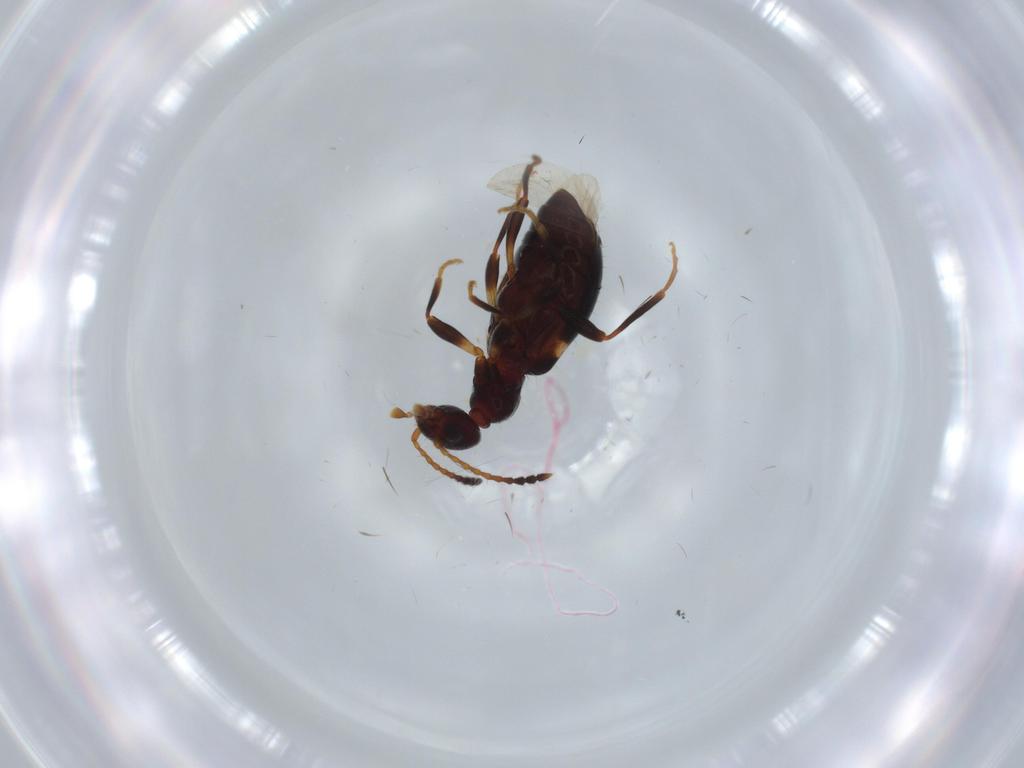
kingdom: Animalia
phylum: Arthropoda
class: Insecta
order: Coleoptera
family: Anthicidae
